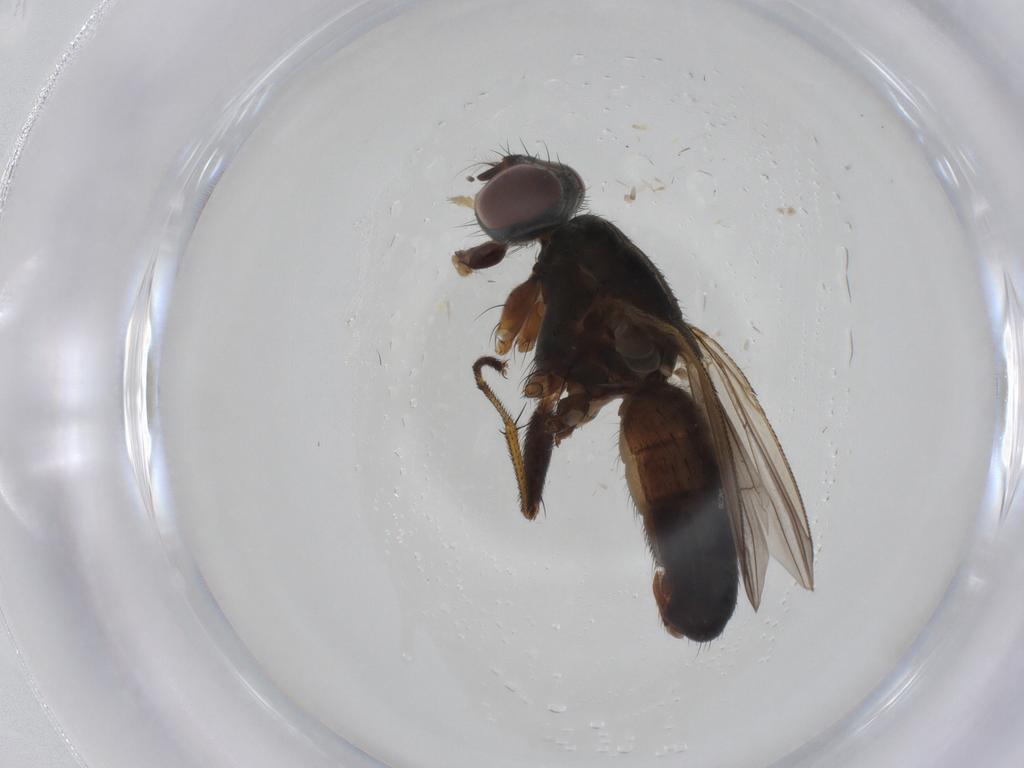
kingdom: Animalia
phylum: Arthropoda
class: Insecta
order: Diptera
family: Muscidae
